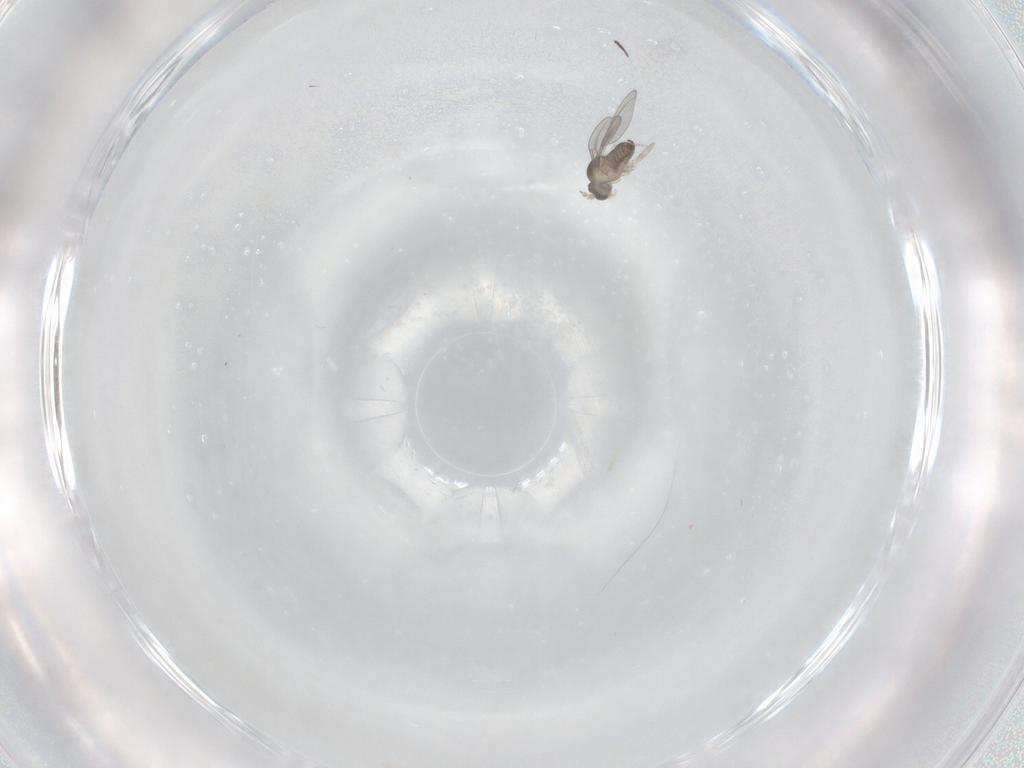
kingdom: Animalia
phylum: Arthropoda
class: Insecta
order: Diptera
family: Cecidomyiidae
